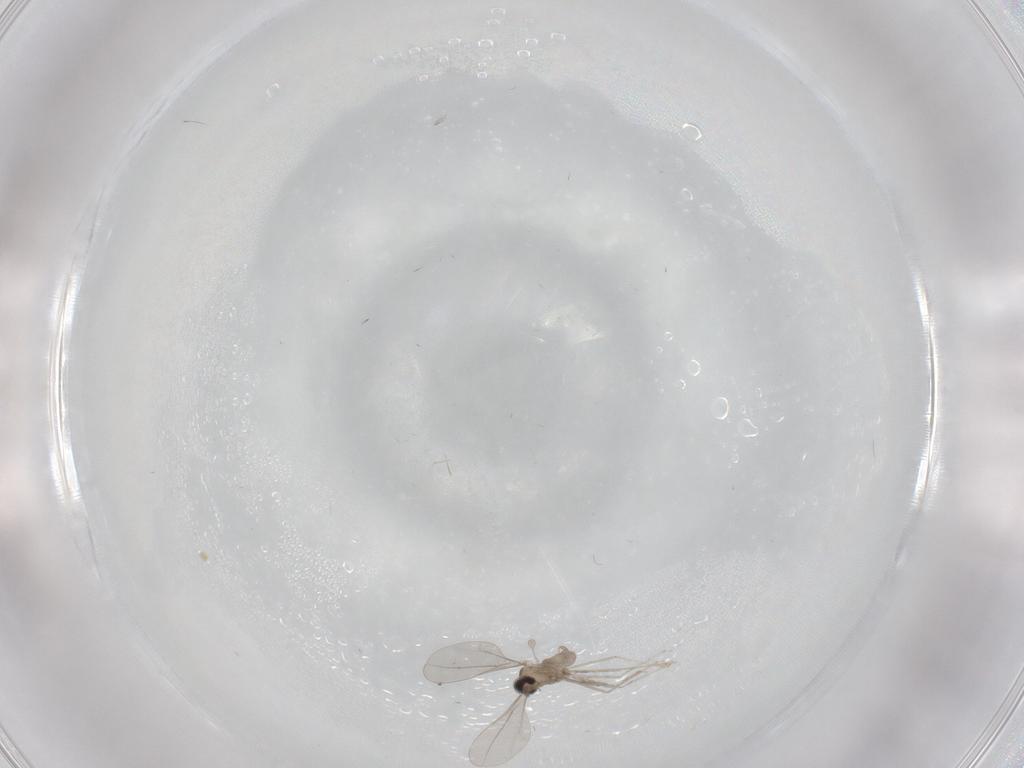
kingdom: Animalia
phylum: Arthropoda
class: Insecta
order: Diptera
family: Cecidomyiidae
